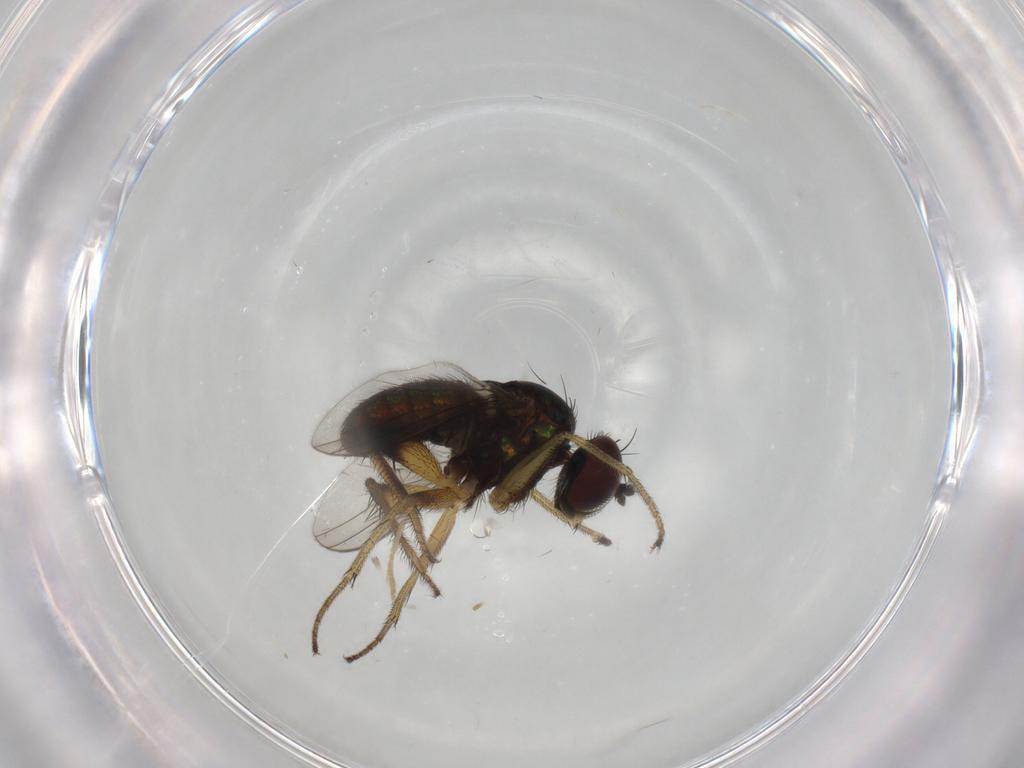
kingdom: Animalia
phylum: Arthropoda
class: Insecta
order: Diptera
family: Dolichopodidae
